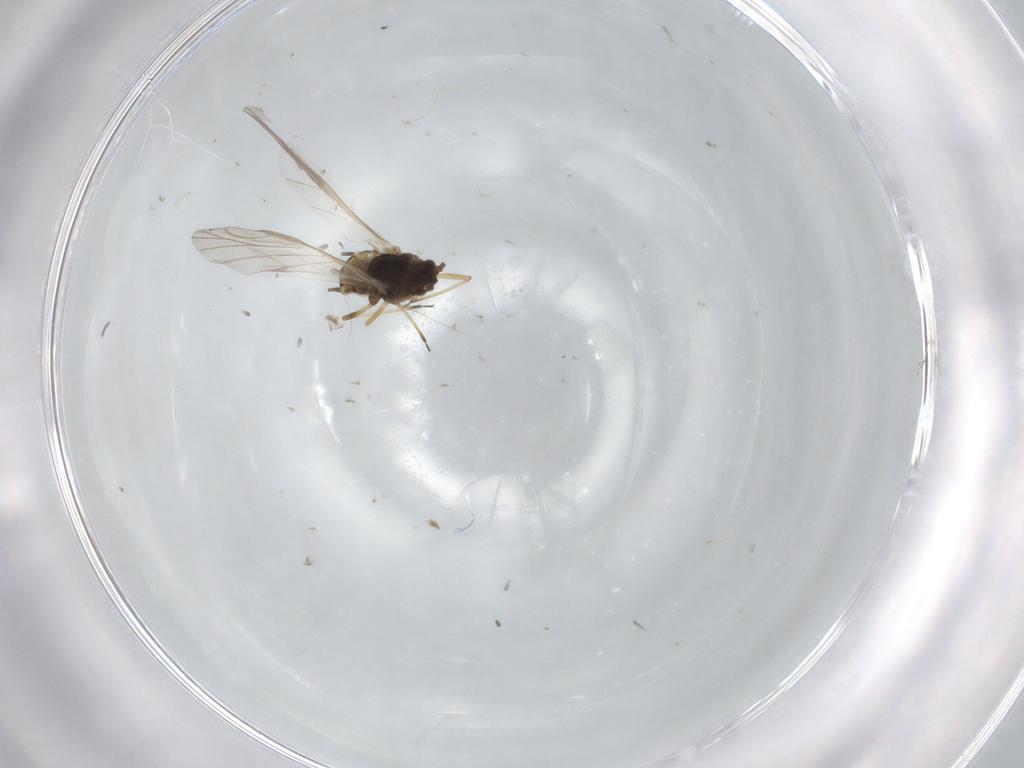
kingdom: Animalia
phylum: Arthropoda
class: Insecta
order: Hemiptera
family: Aphididae
